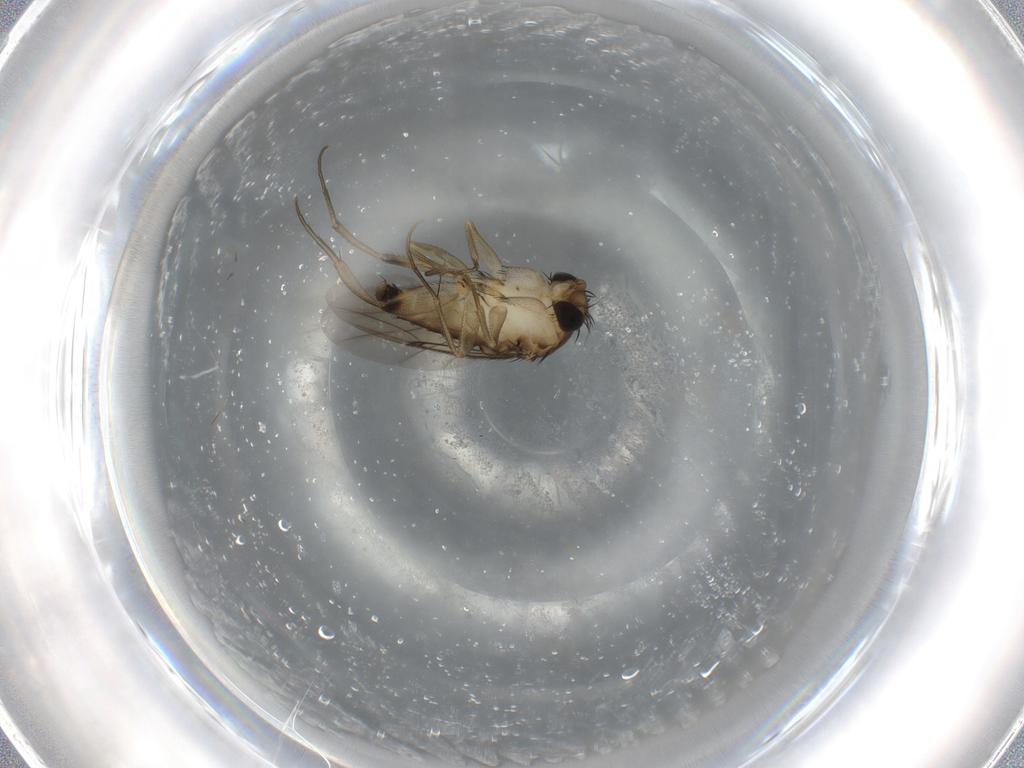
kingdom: Animalia
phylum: Arthropoda
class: Insecta
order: Diptera
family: Phoridae
